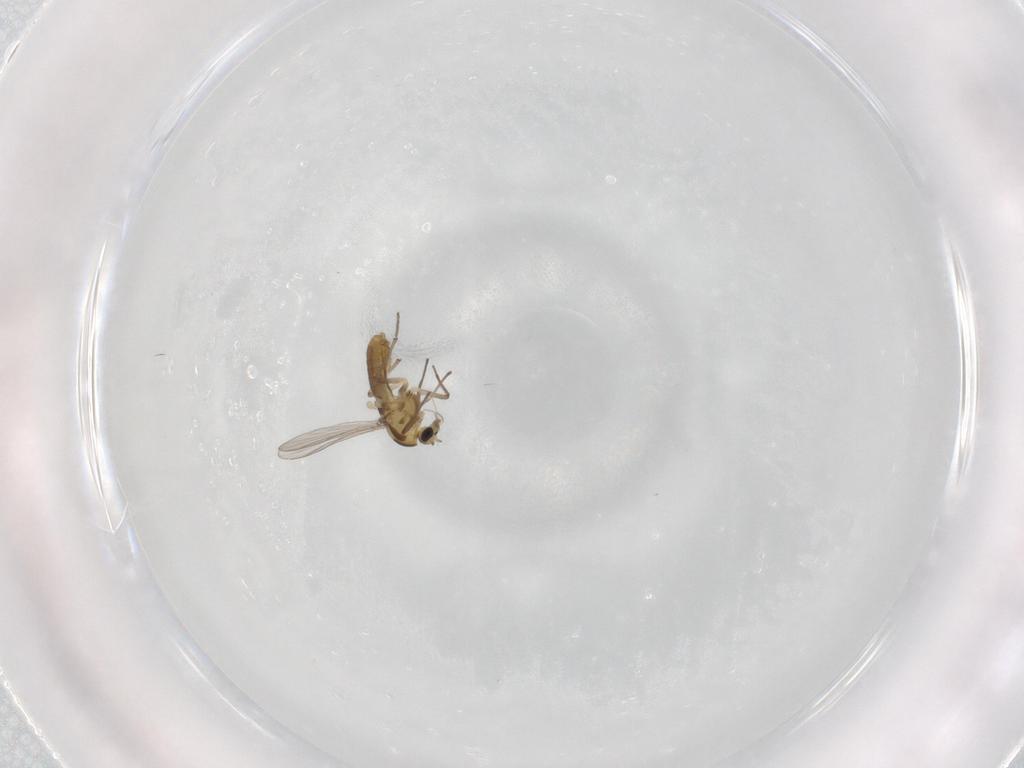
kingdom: Animalia
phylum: Arthropoda
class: Insecta
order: Diptera
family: Chironomidae
